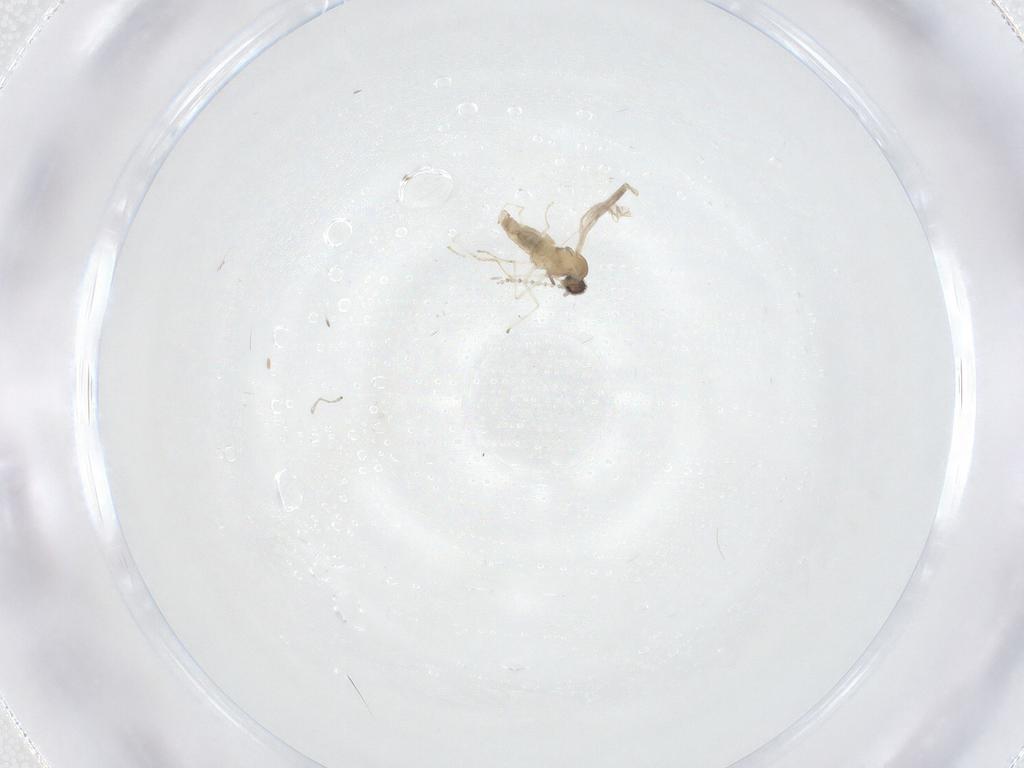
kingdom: Animalia
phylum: Arthropoda
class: Insecta
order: Diptera
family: Cecidomyiidae
